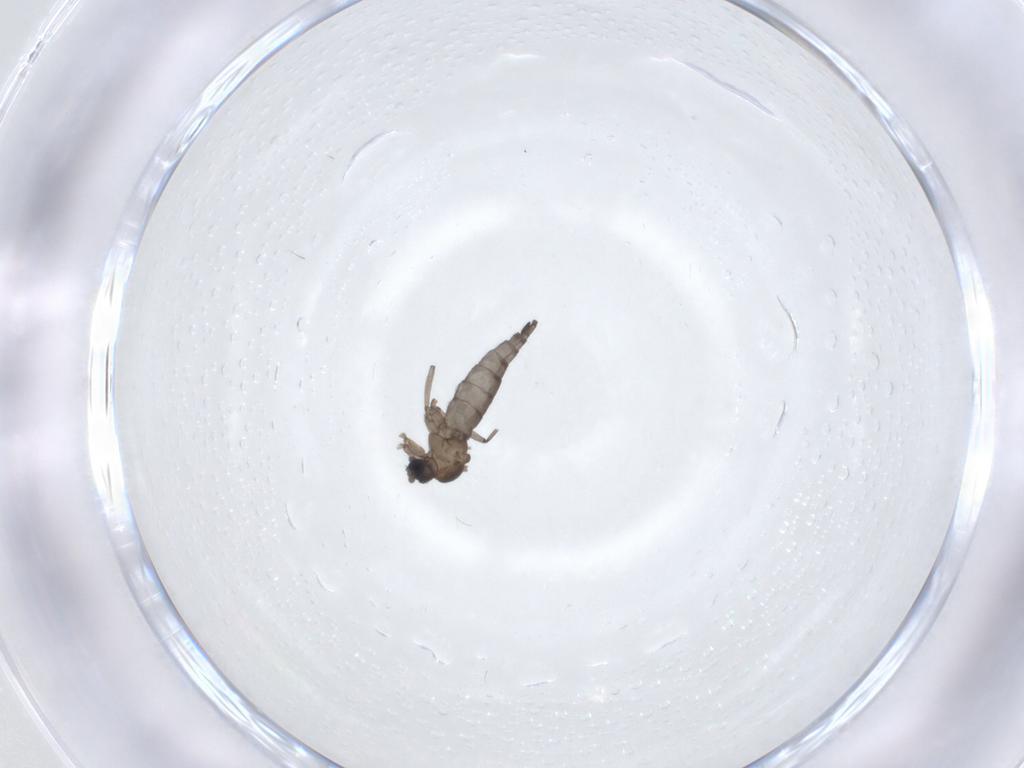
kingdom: Animalia
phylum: Arthropoda
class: Insecta
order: Diptera
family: Sciaridae
